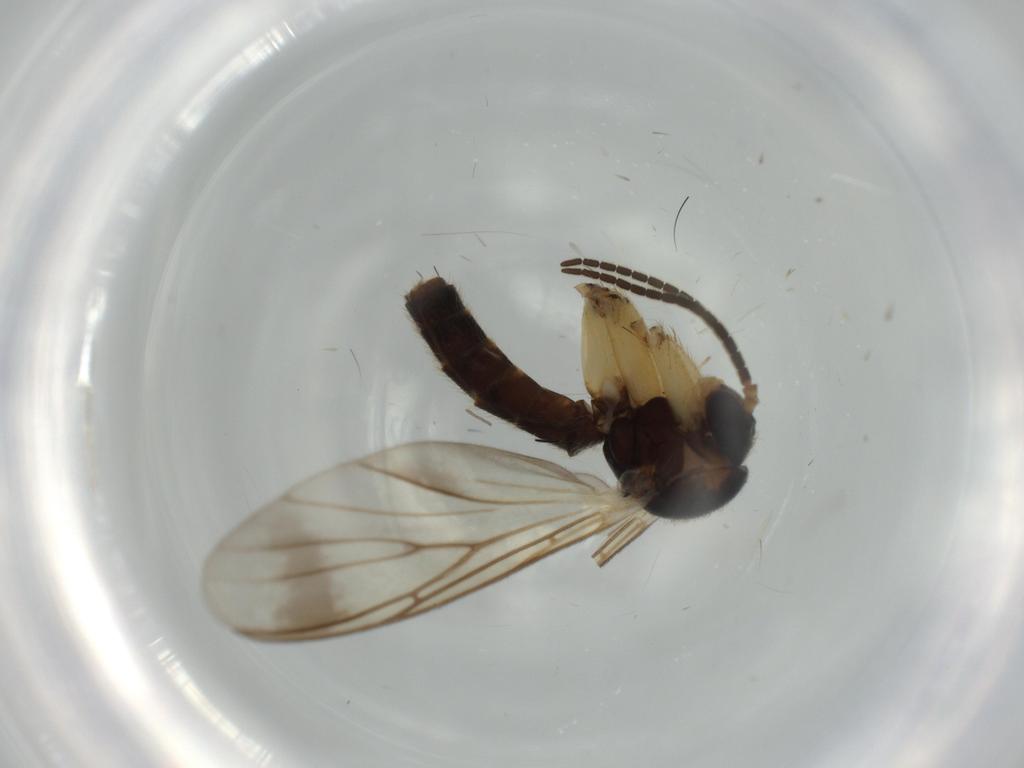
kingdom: Animalia
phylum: Arthropoda
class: Insecta
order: Diptera
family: Mycetophilidae
